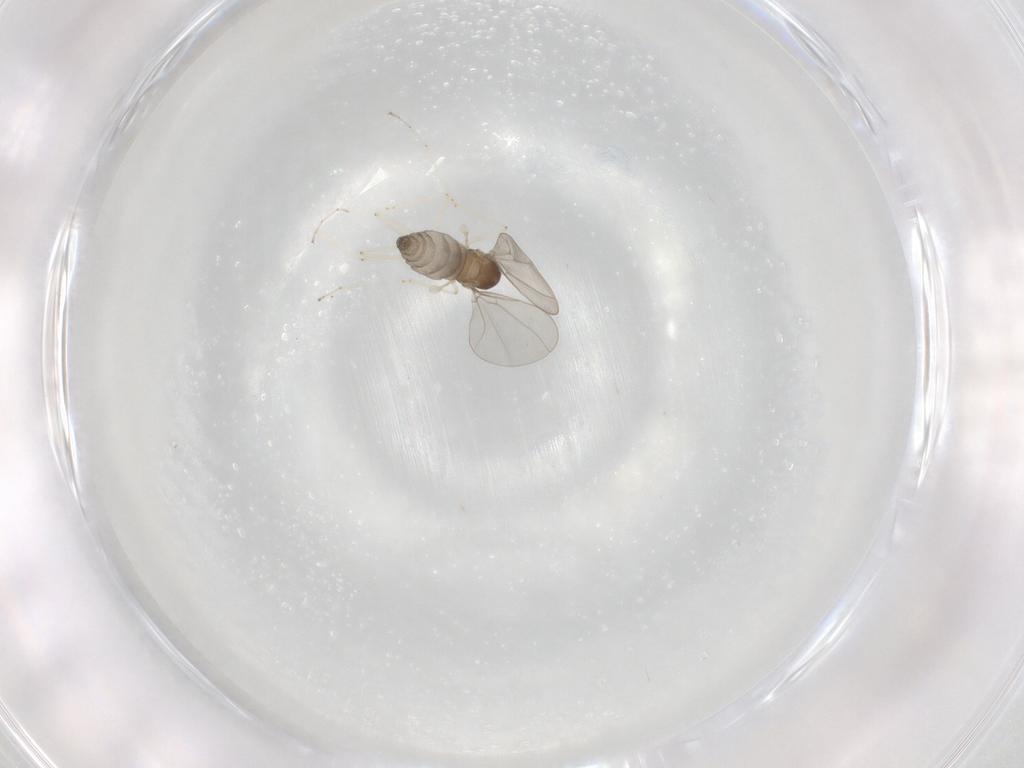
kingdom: Animalia
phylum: Arthropoda
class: Insecta
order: Diptera
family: Cecidomyiidae
